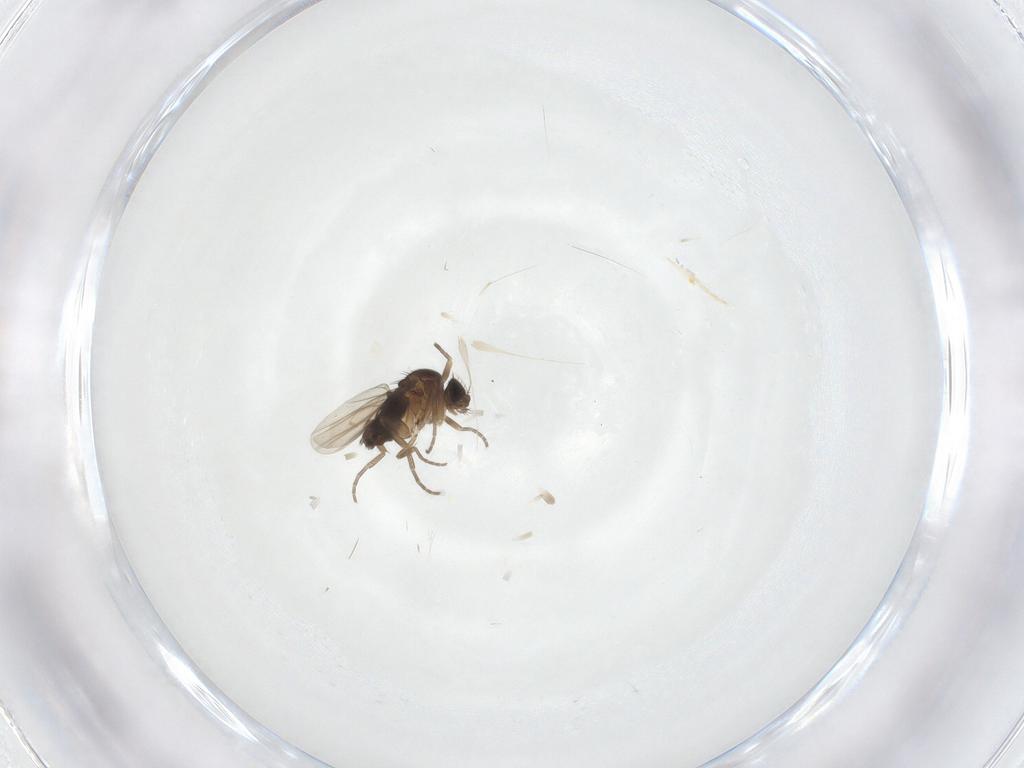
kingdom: Animalia
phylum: Arthropoda
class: Insecta
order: Diptera
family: Phoridae
